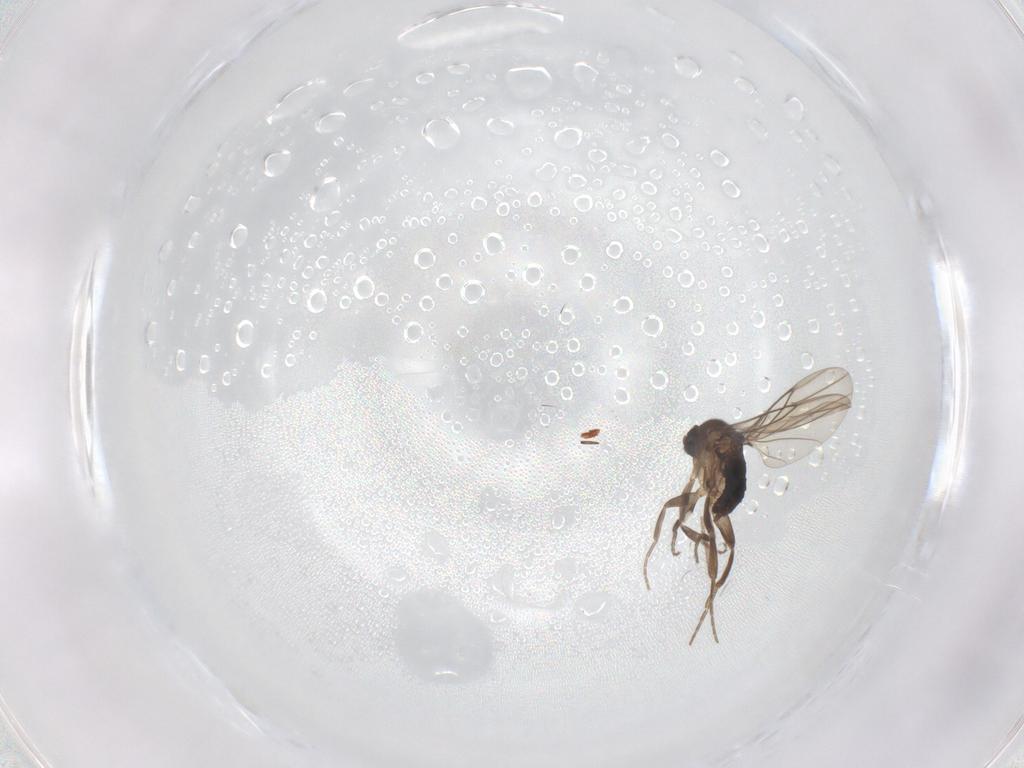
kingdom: Animalia
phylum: Arthropoda
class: Insecta
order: Diptera
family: Phoridae
